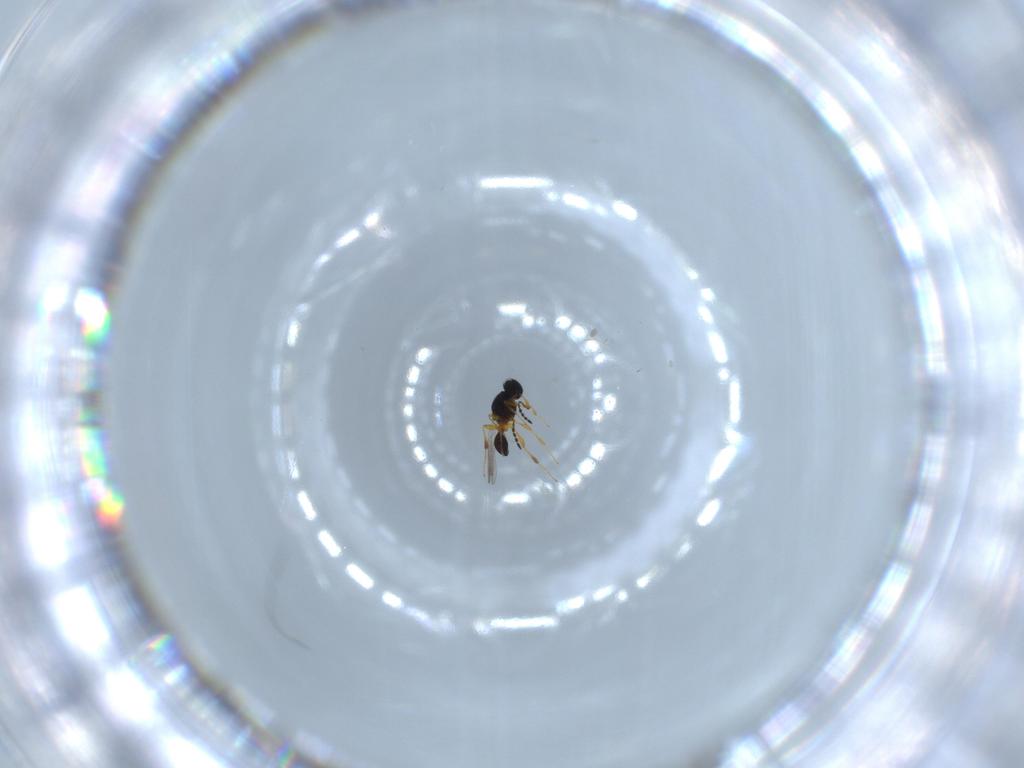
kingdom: Animalia
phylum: Arthropoda
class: Insecta
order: Hymenoptera
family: Platygastridae
